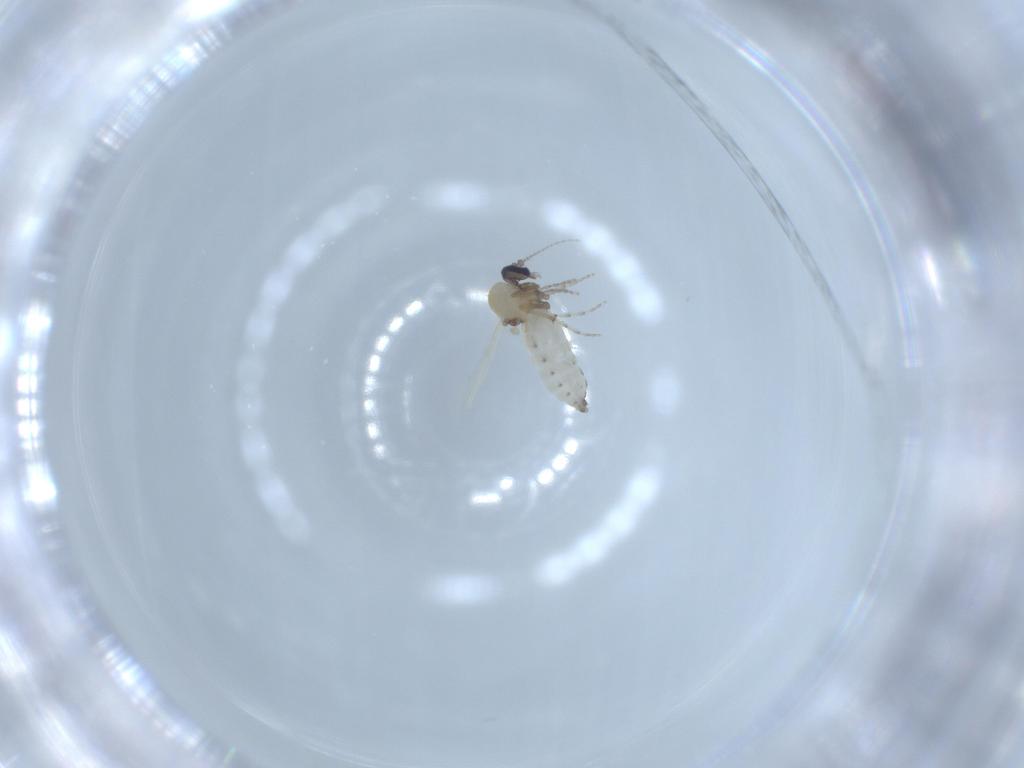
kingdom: Animalia
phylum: Arthropoda
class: Insecta
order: Diptera
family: Ceratopogonidae
